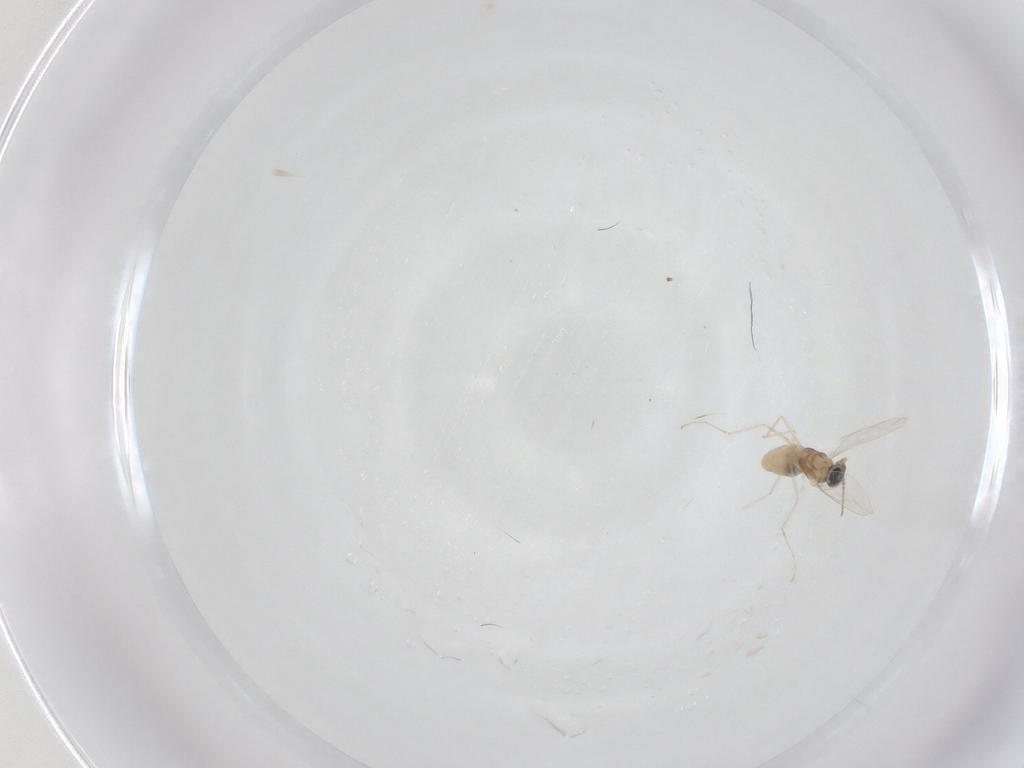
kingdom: Animalia
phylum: Arthropoda
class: Insecta
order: Diptera
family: Cecidomyiidae
